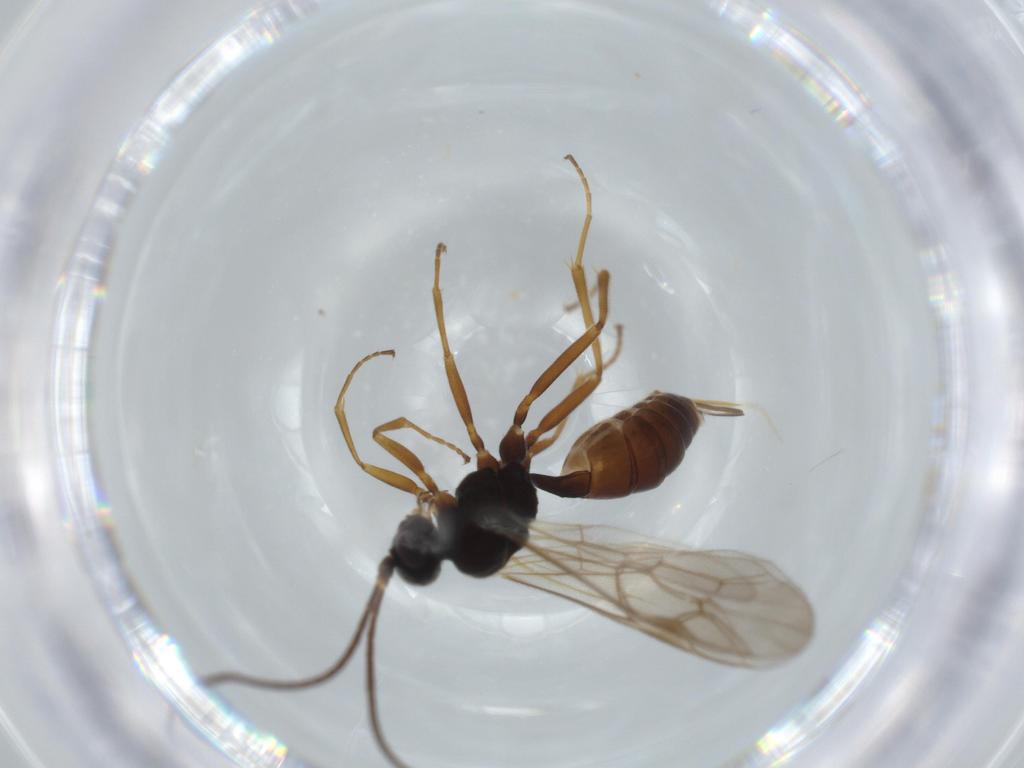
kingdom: Animalia
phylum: Arthropoda
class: Insecta
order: Hymenoptera
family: Ichneumonidae
